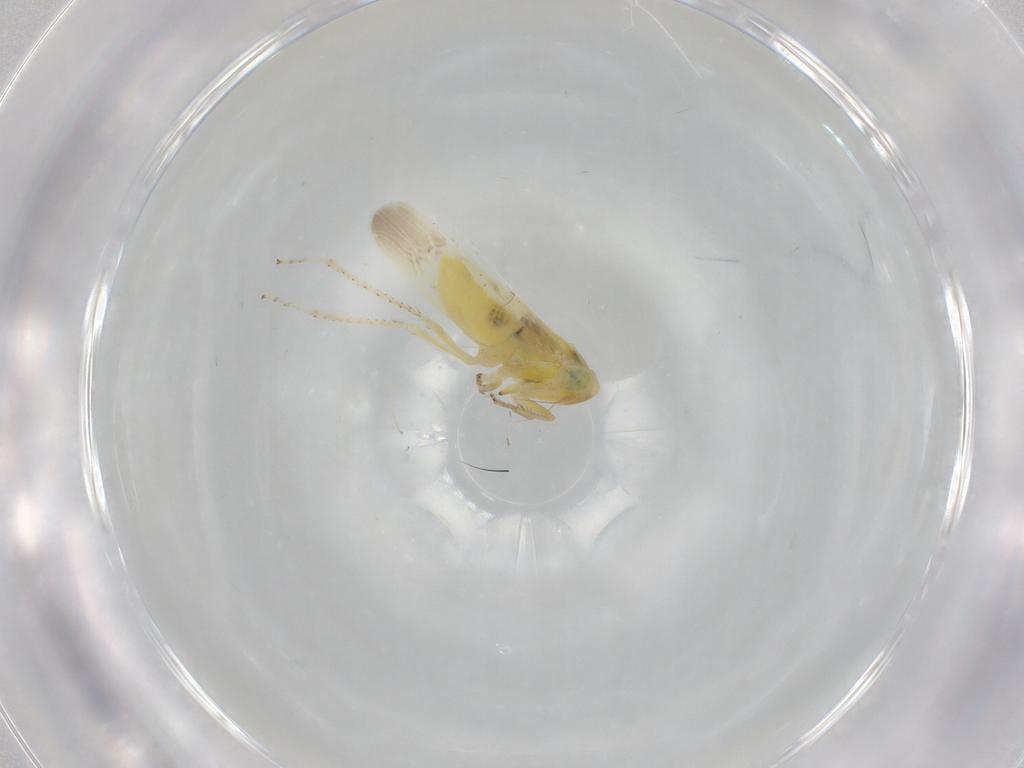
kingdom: Animalia
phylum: Arthropoda
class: Insecta
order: Hemiptera
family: Cicadellidae
